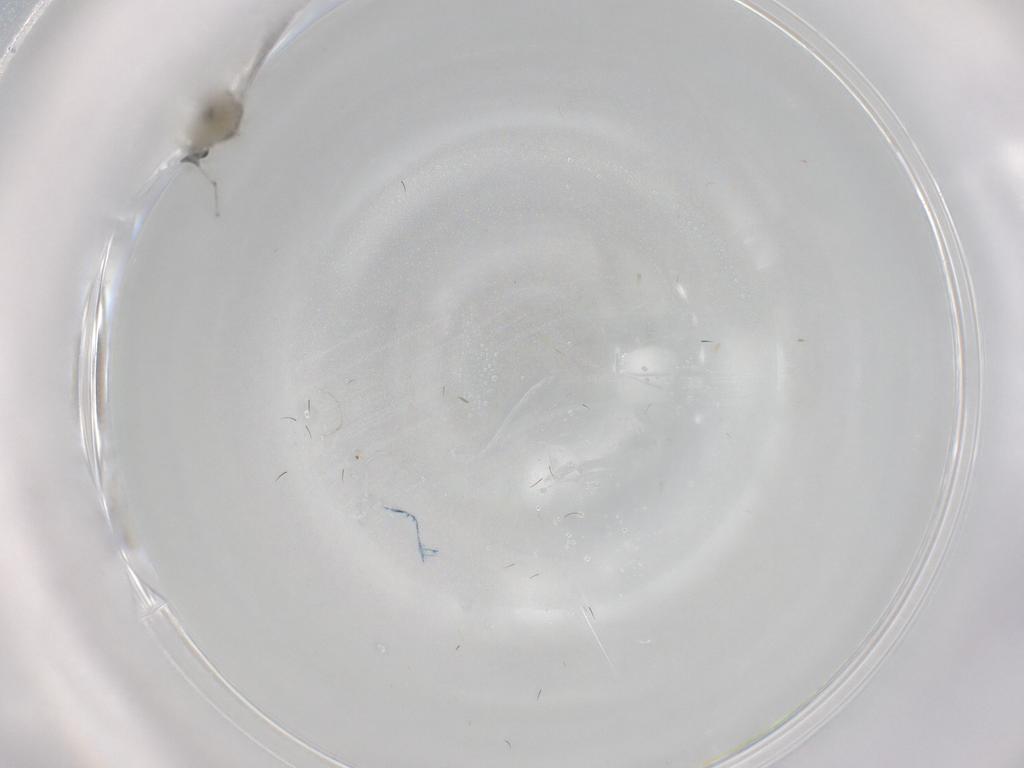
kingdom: Animalia
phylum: Arthropoda
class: Insecta
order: Diptera
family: Cecidomyiidae
